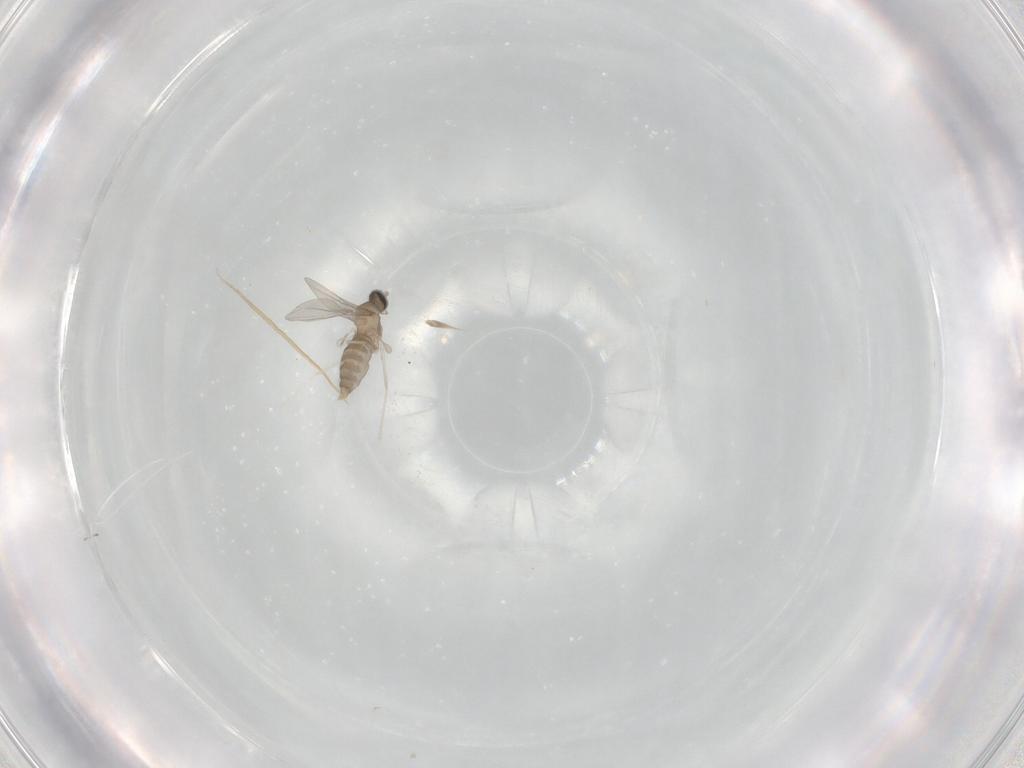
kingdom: Animalia
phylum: Arthropoda
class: Insecta
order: Diptera
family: Cecidomyiidae
